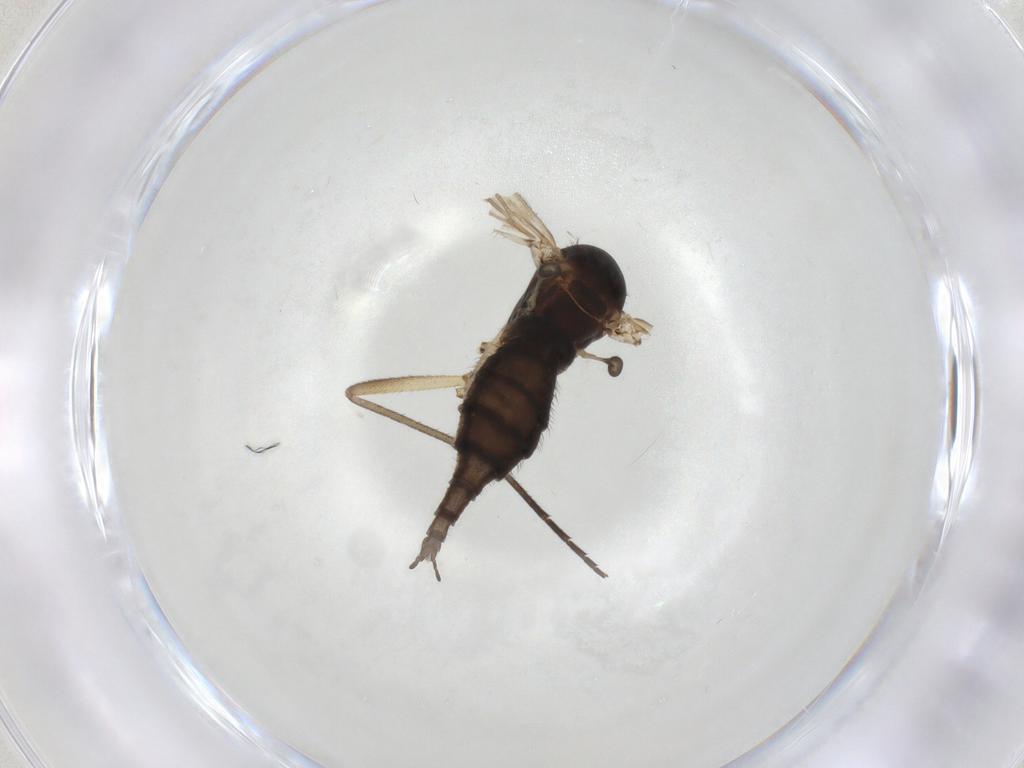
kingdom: Animalia
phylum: Arthropoda
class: Insecta
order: Diptera
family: Sciaridae
